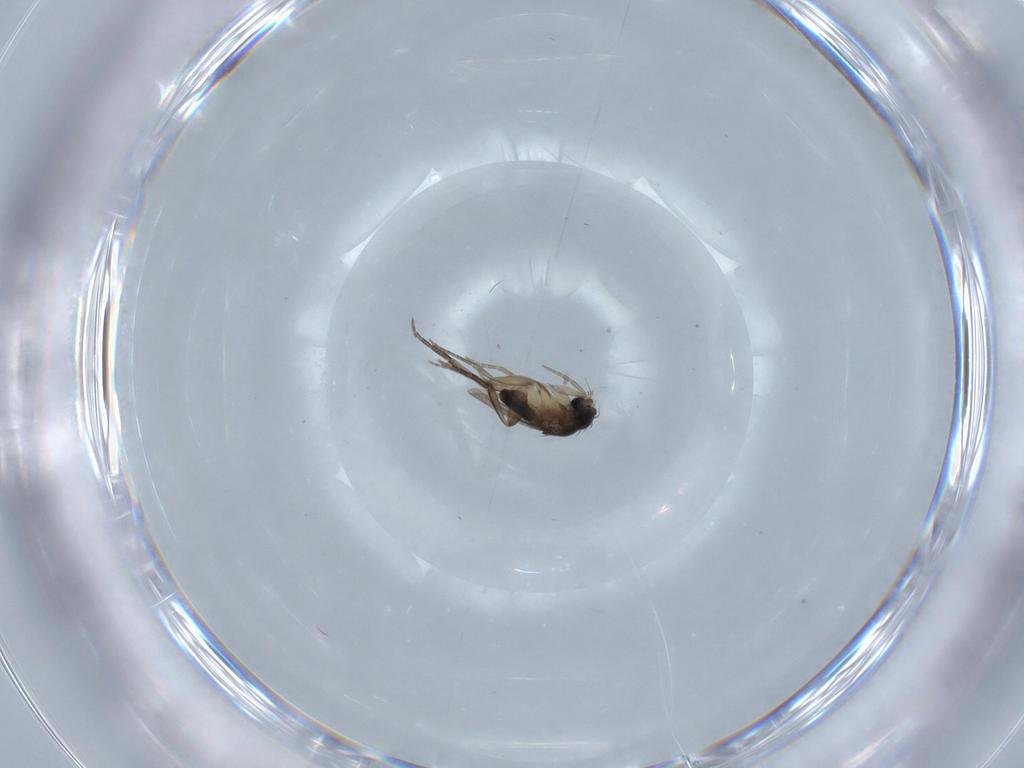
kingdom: Animalia
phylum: Arthropoda
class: Insecta
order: Diptera
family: Phoridae
